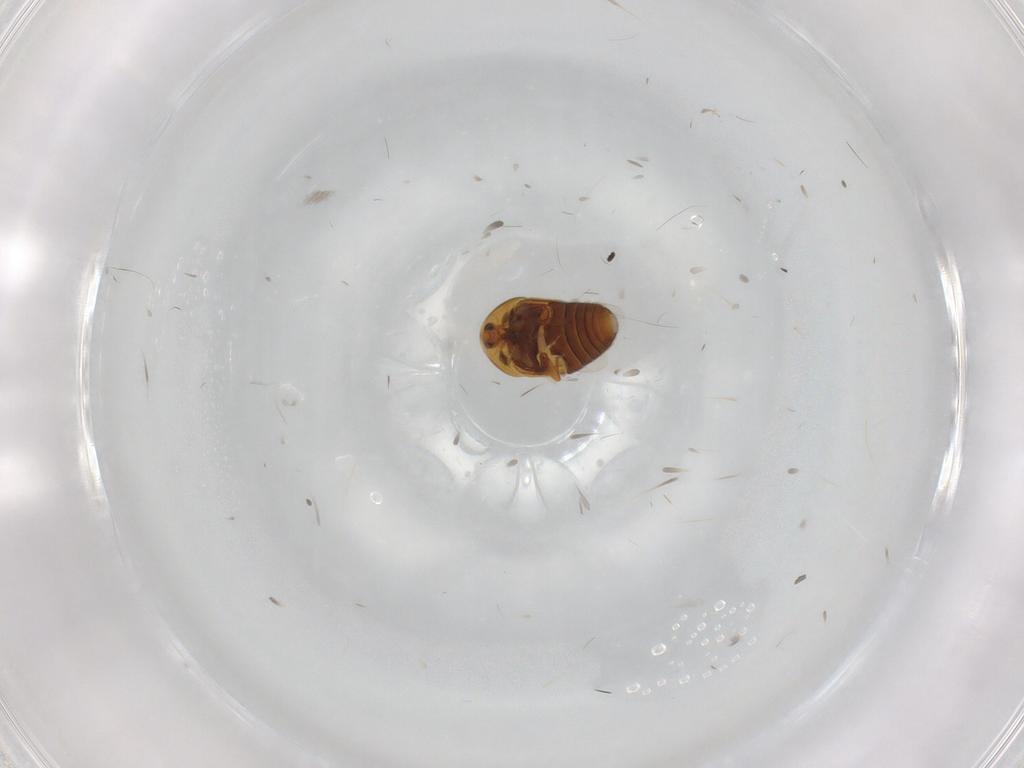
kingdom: Animalia
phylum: Arthropoda
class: Insecta
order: Coleoptera
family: Corylophidae
